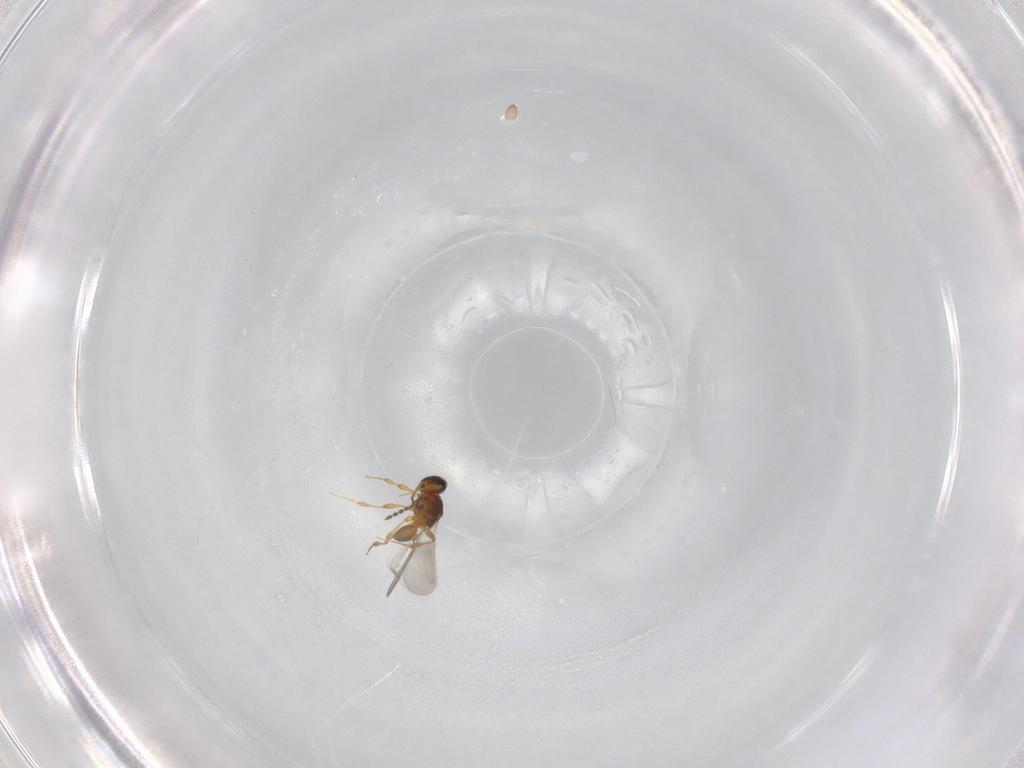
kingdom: Animalia
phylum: Arthropoda
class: Insecta
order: Hymenoptera
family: Platygastridae
